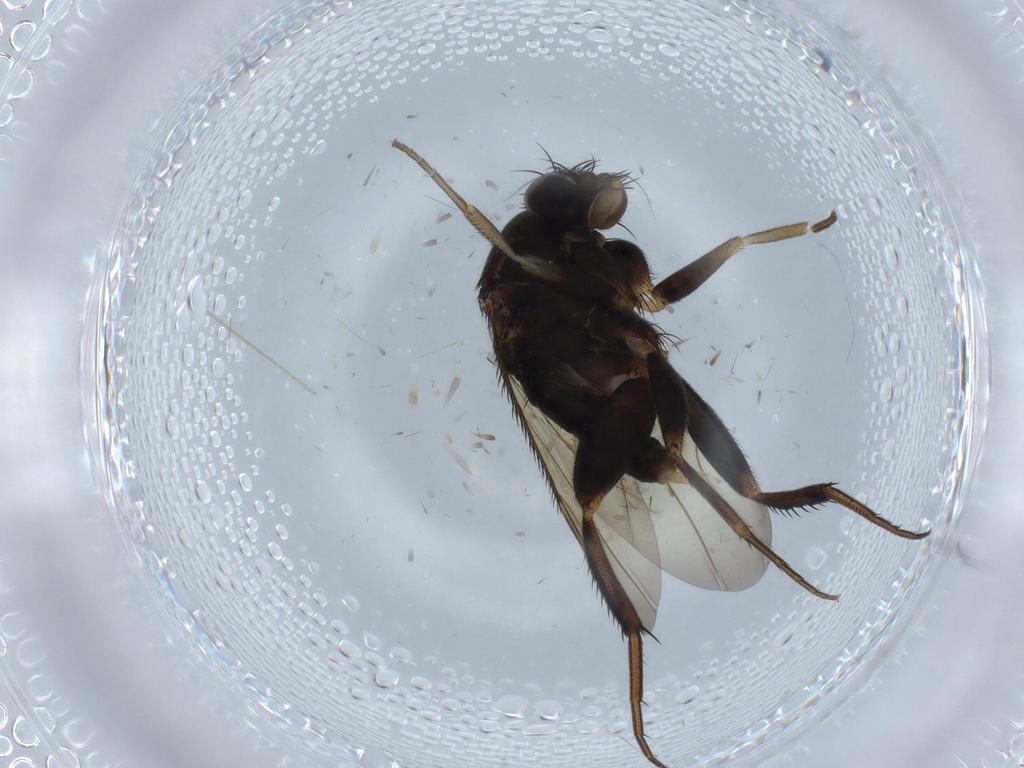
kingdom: Animalia
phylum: Arthropoda
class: Insecta
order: Diptera
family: Phoridae
